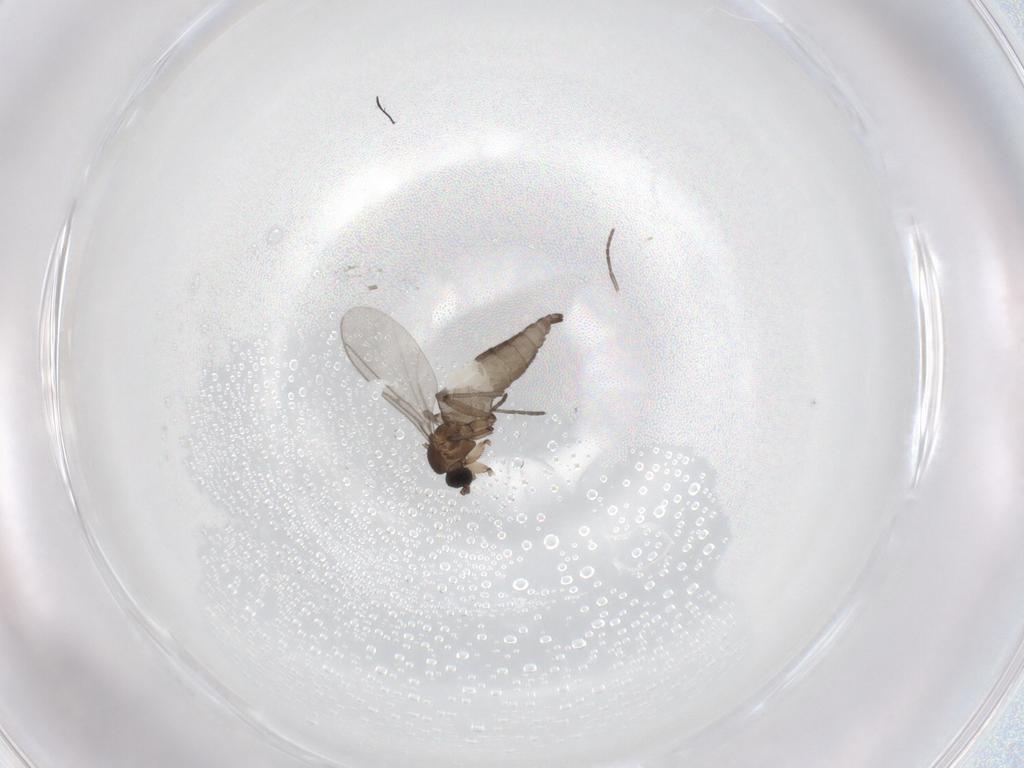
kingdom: Animalia
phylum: Arthropoda
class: Insecta
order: Diptera
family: Sciaridae
